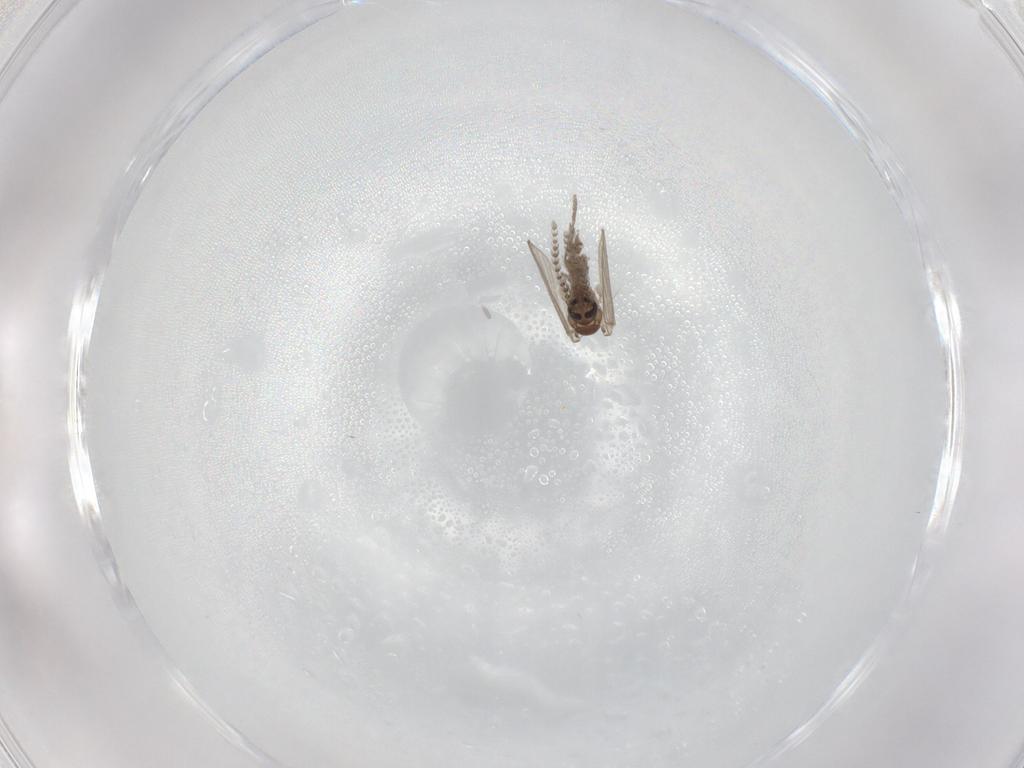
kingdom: Animalia
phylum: Arthropoda
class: Insecta
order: Diptera
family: Psychodidae
